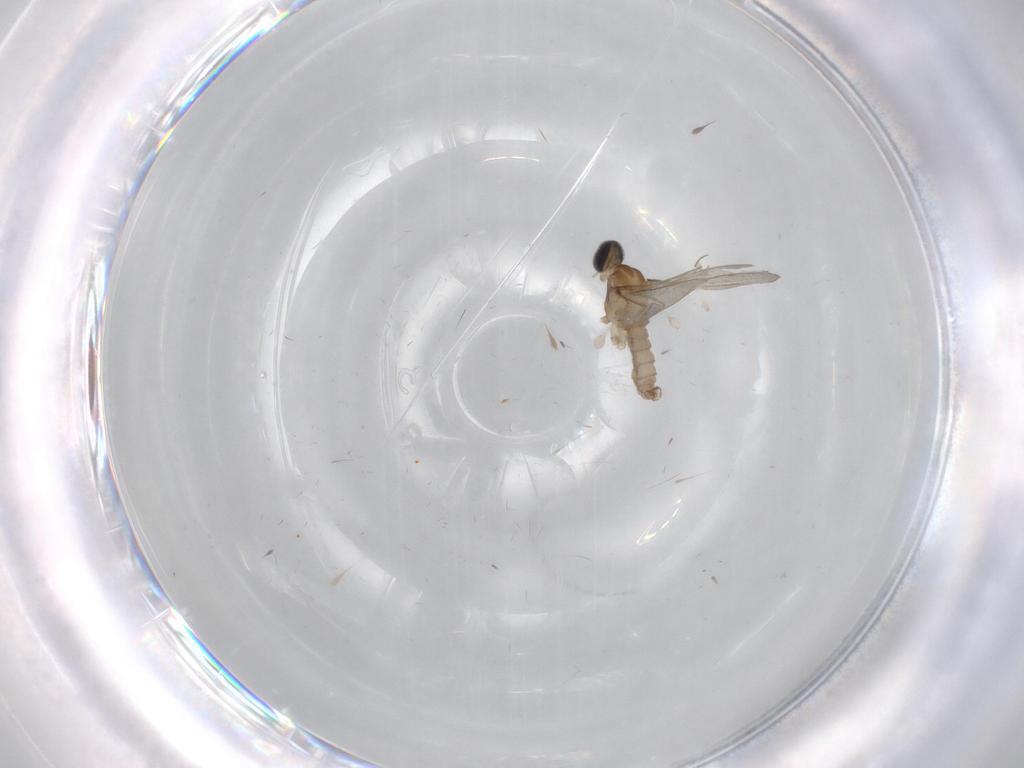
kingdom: Animalia
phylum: Arthropoda
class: Insecta
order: Diptera
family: Cecidomyiidae
